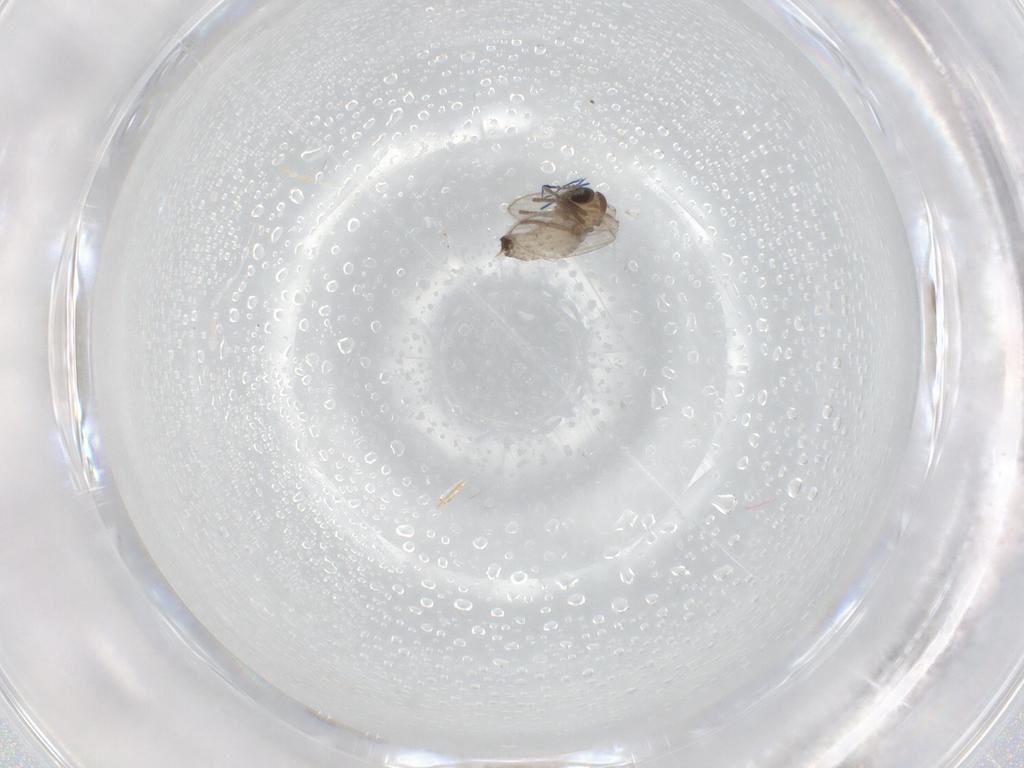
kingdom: Animalia
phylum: Arthropoda
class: Insecta
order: Diptera
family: Psychodidae
